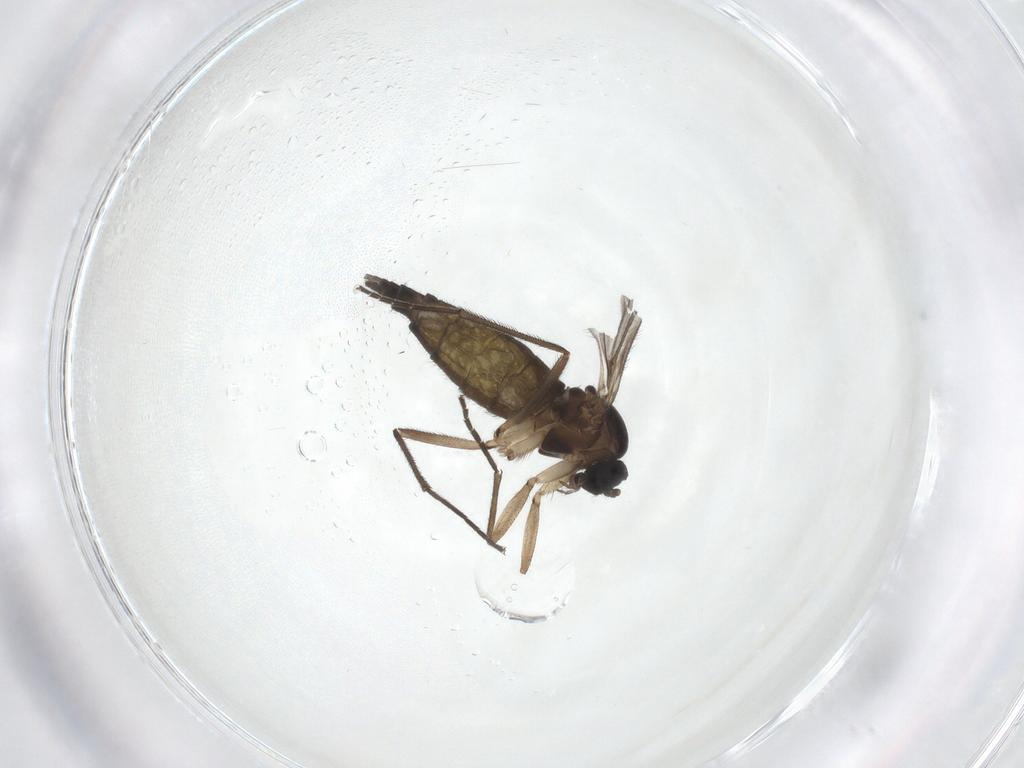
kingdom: Animalia
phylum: Arthropoda
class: Insecta
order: Diptera
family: Sciaridae
